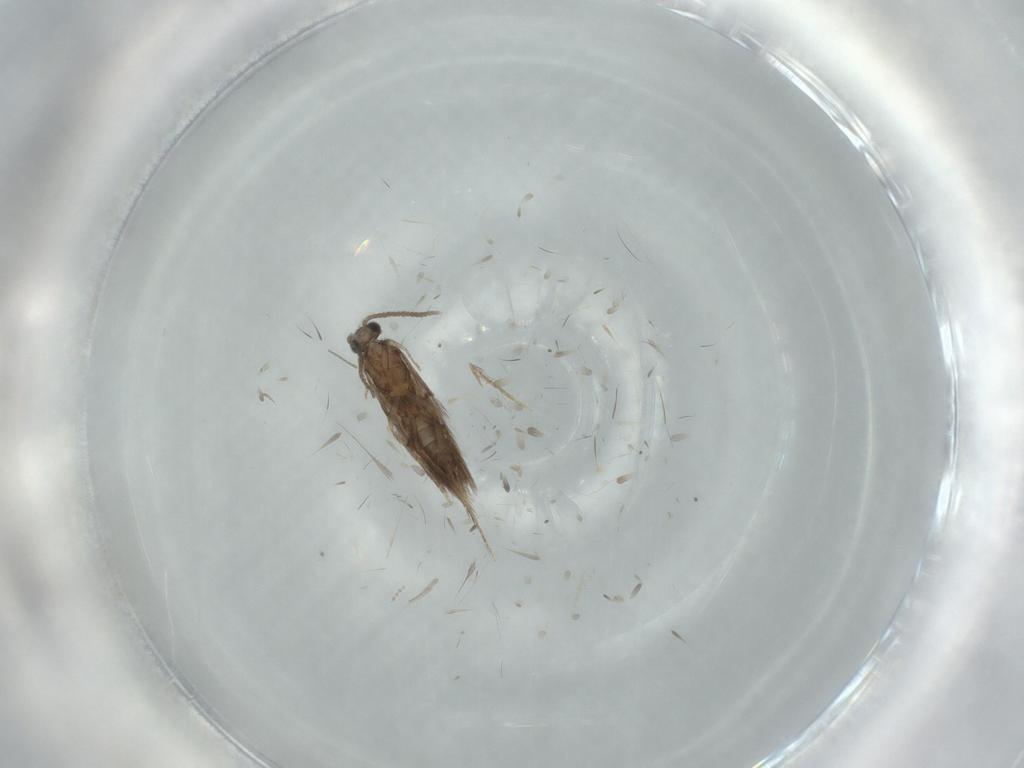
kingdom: Animalia
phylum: Arthropoda
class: Insecta
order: Trichoptera
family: Hydroptilidae
